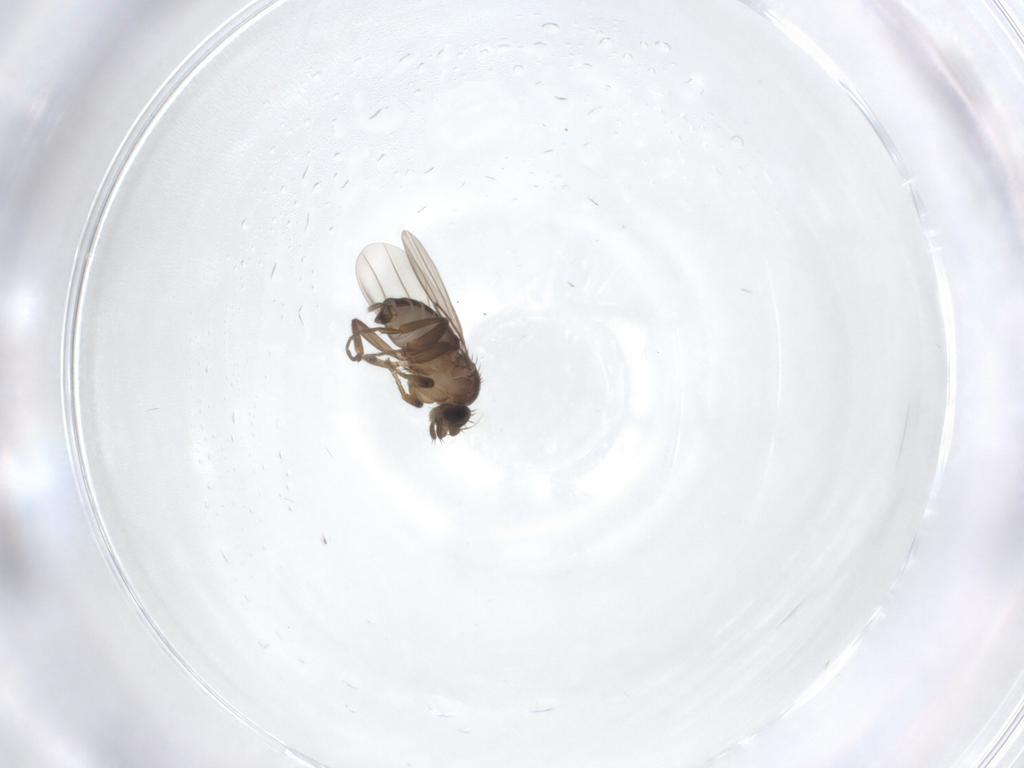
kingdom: Animalia
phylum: Arthropoda
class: Insecta
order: Diptera
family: Phoridae
